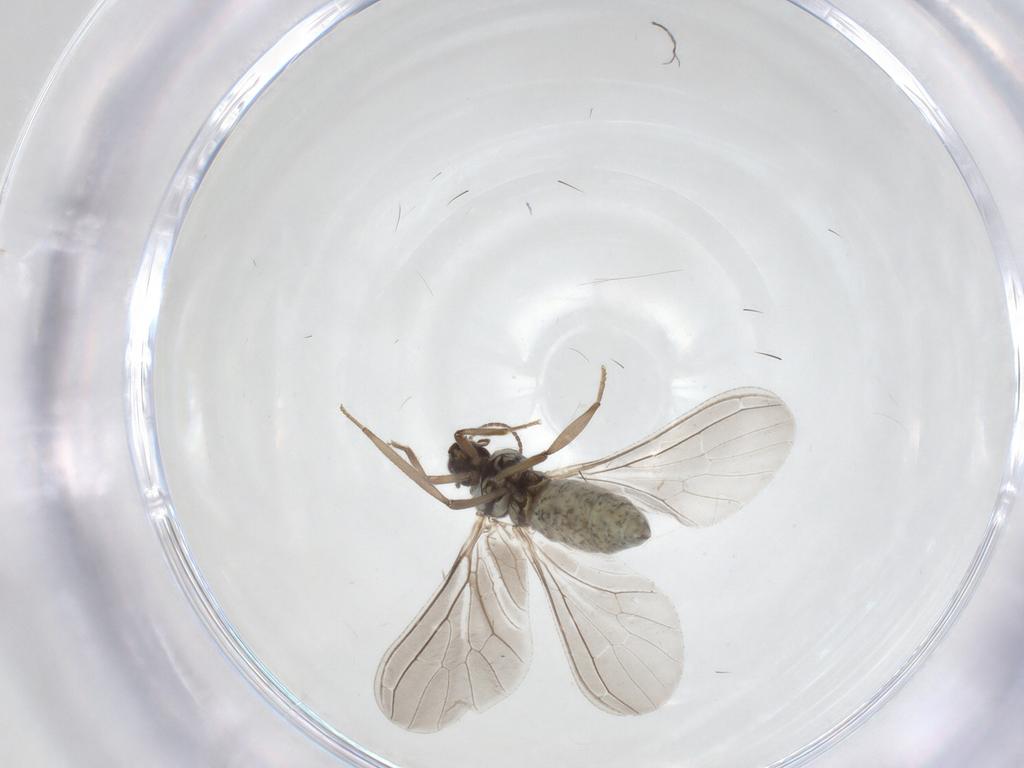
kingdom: Animalia
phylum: Arthropoda
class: Insecta
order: Neuroptera
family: Coniopterygidae
